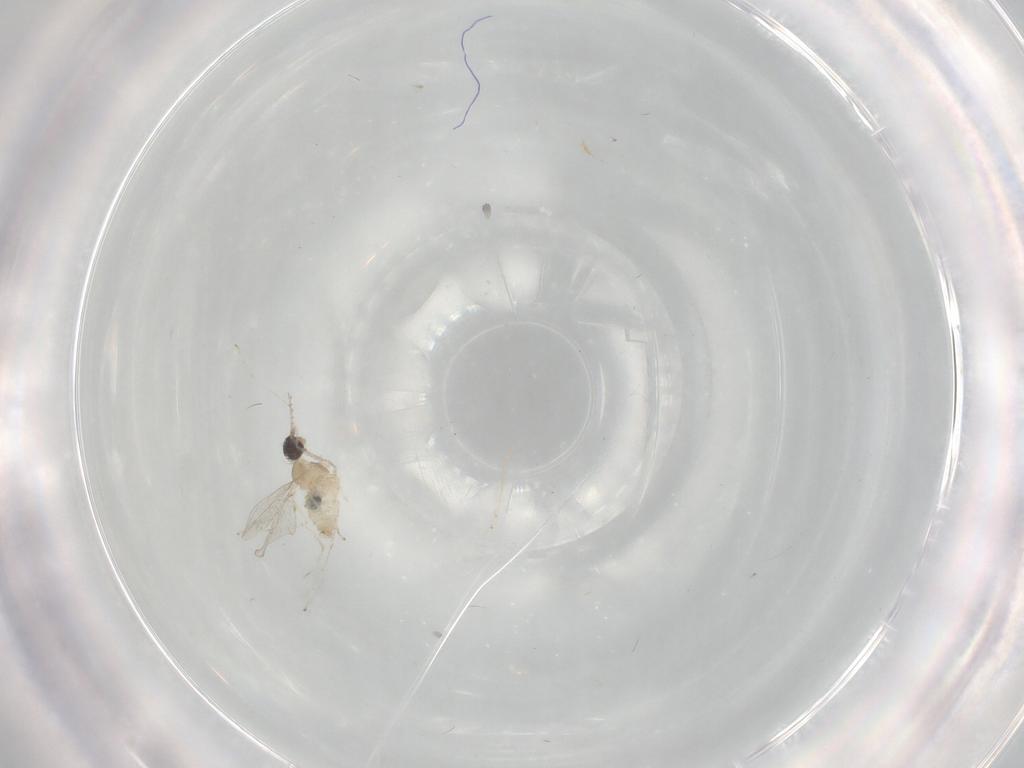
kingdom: Animalia
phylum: Arthropoda
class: Insecta
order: Diptera
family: Cecidomyiidae
